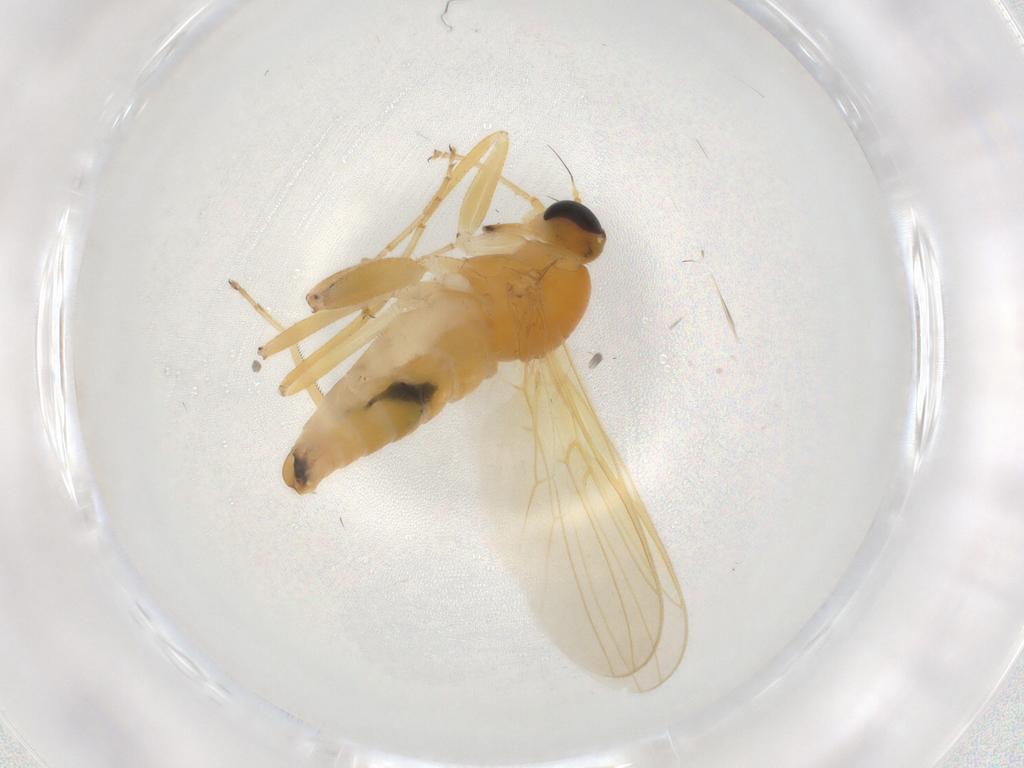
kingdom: Animalia
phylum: Arthropoda
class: Insecta
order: Diptera
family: Hybotidae
